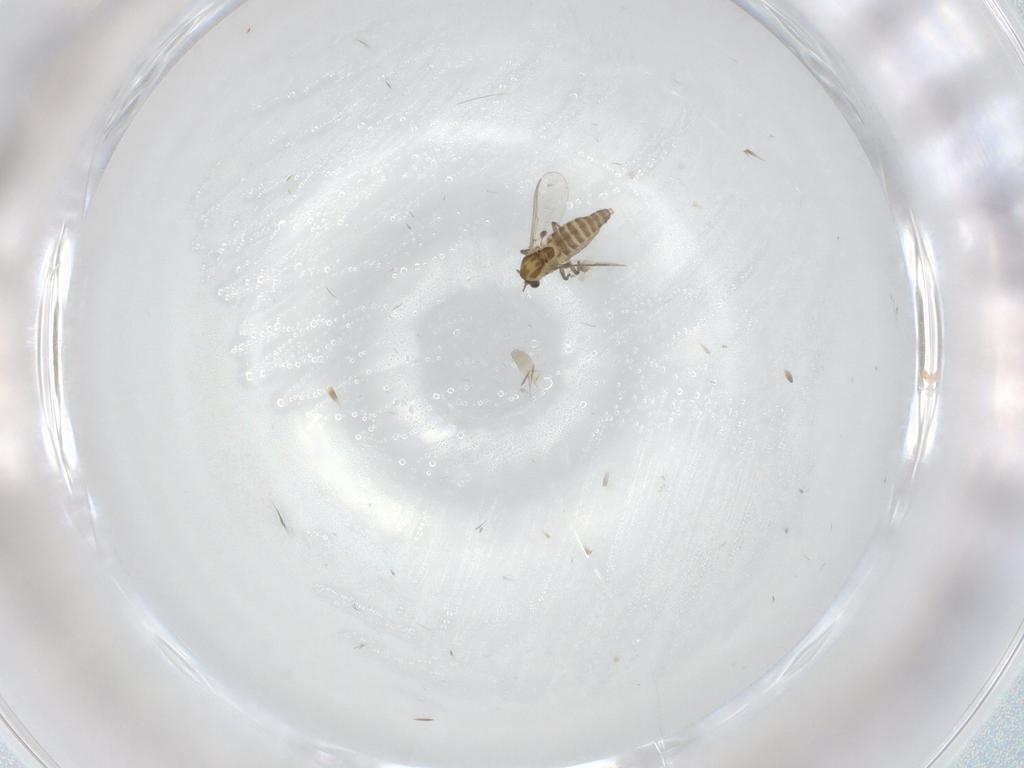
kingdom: Animalia
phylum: Arthropoda
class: Insecta
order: Diptera
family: Chironomidae
